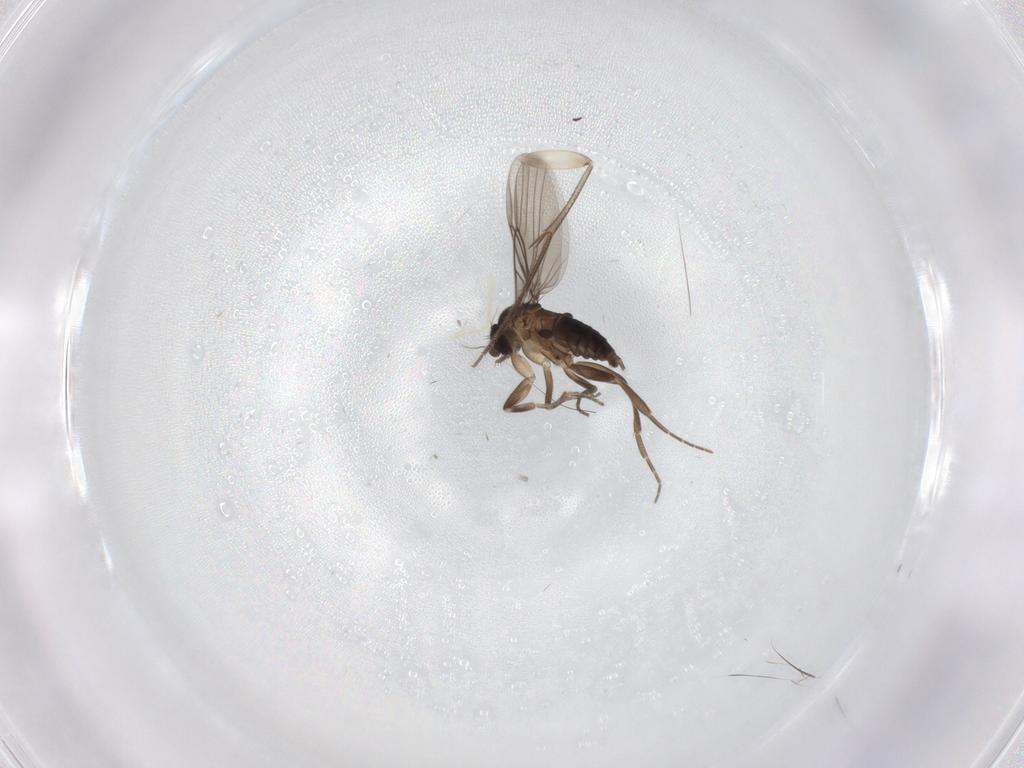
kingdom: Animalia
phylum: Arthropoda
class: Insecta
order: Diptera
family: Mycetophilidae
